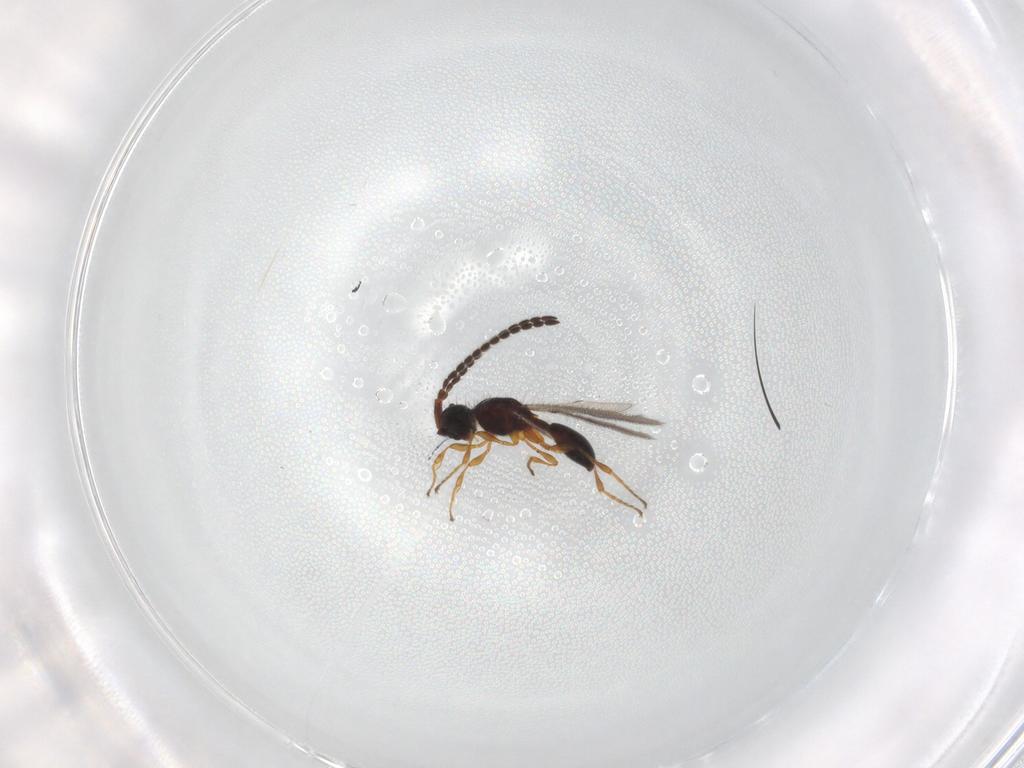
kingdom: Animalia
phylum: Arthropoda
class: Insecta
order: Hymenoptera
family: Diapriidae
